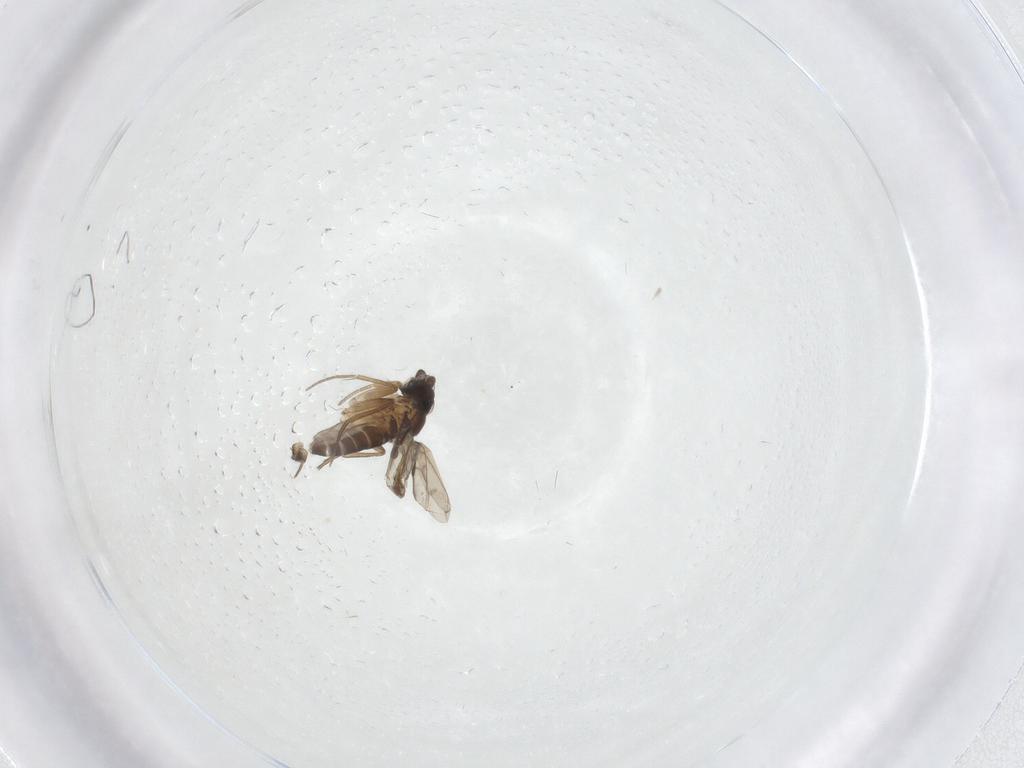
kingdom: Animalia
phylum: Arthropoda
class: Insecta
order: Diptera
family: Phoridae
